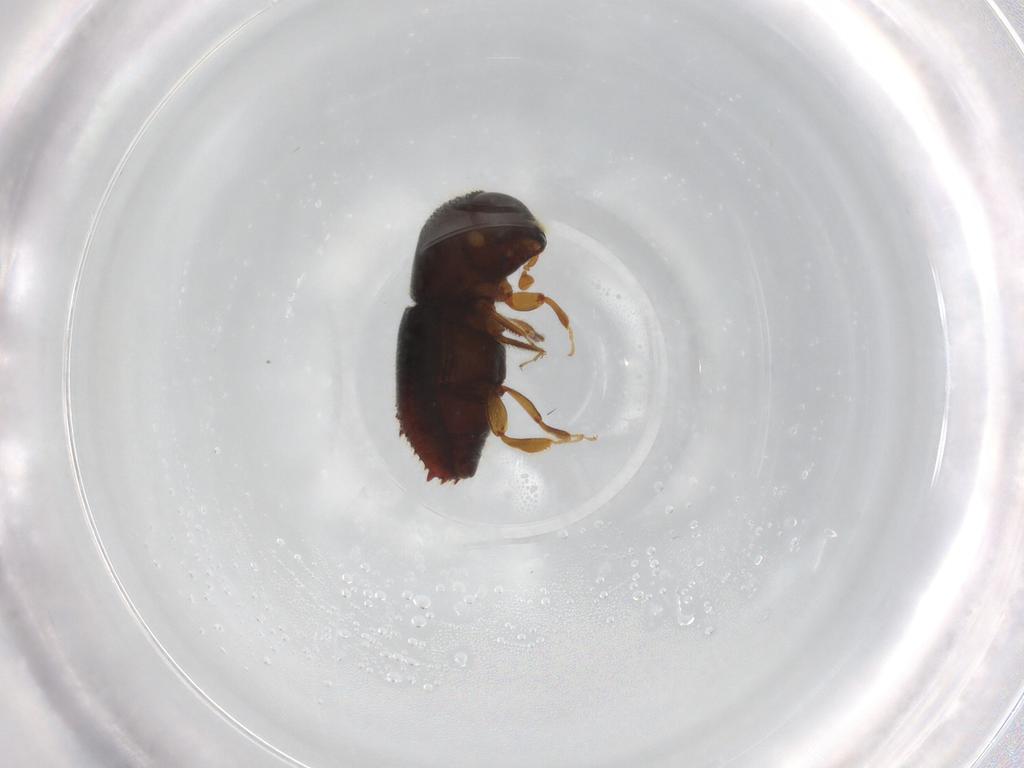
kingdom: Animalia
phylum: Arthropoda
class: Insecta
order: Coleoptera
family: Curculionidae
